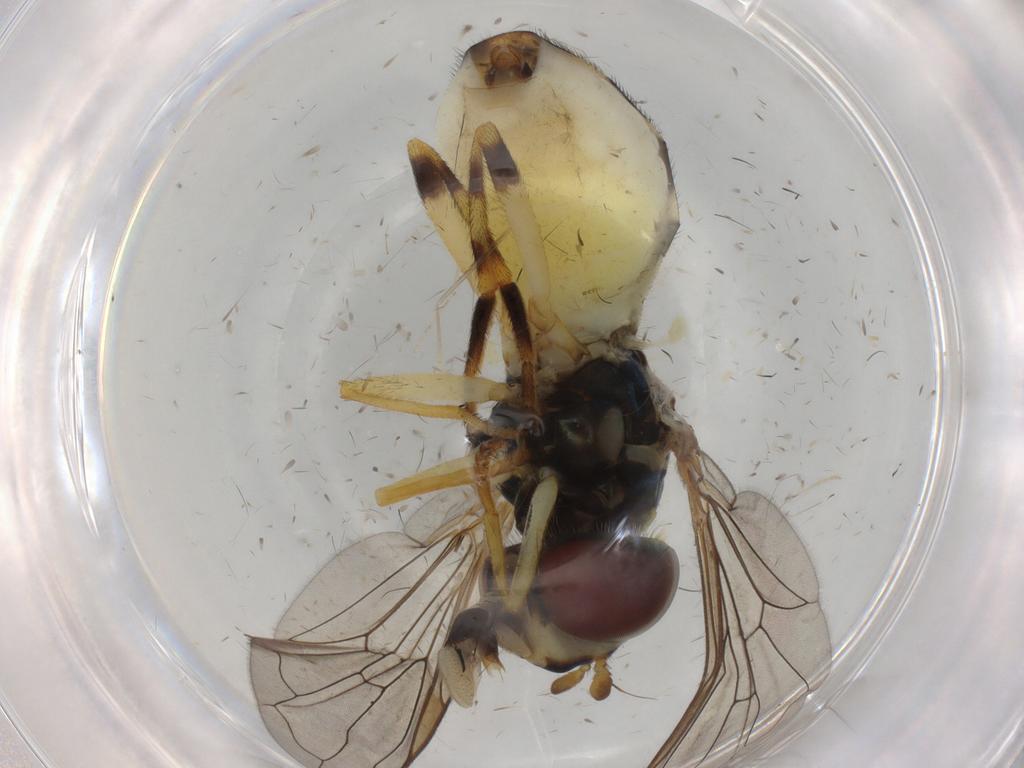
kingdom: Animalia
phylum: Arthropoda
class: Insecta
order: Diptera
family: Syrphidae
